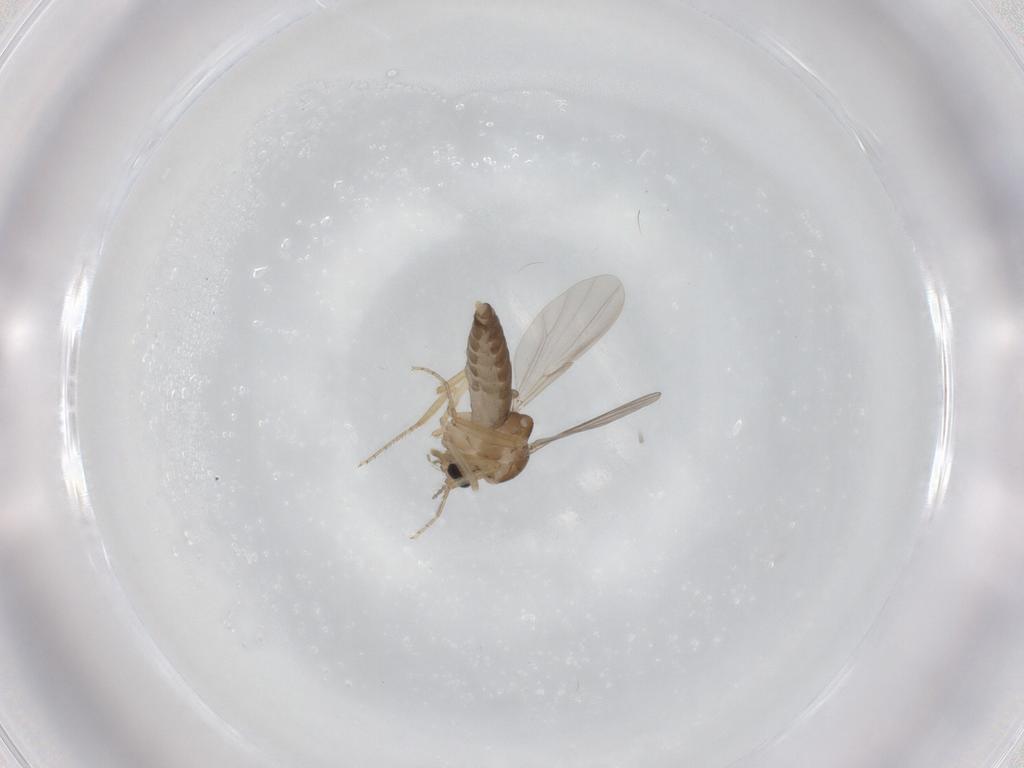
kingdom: Animalia
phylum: Arthropoda
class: Insecta
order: Diptera
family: Ceratopogonidae
